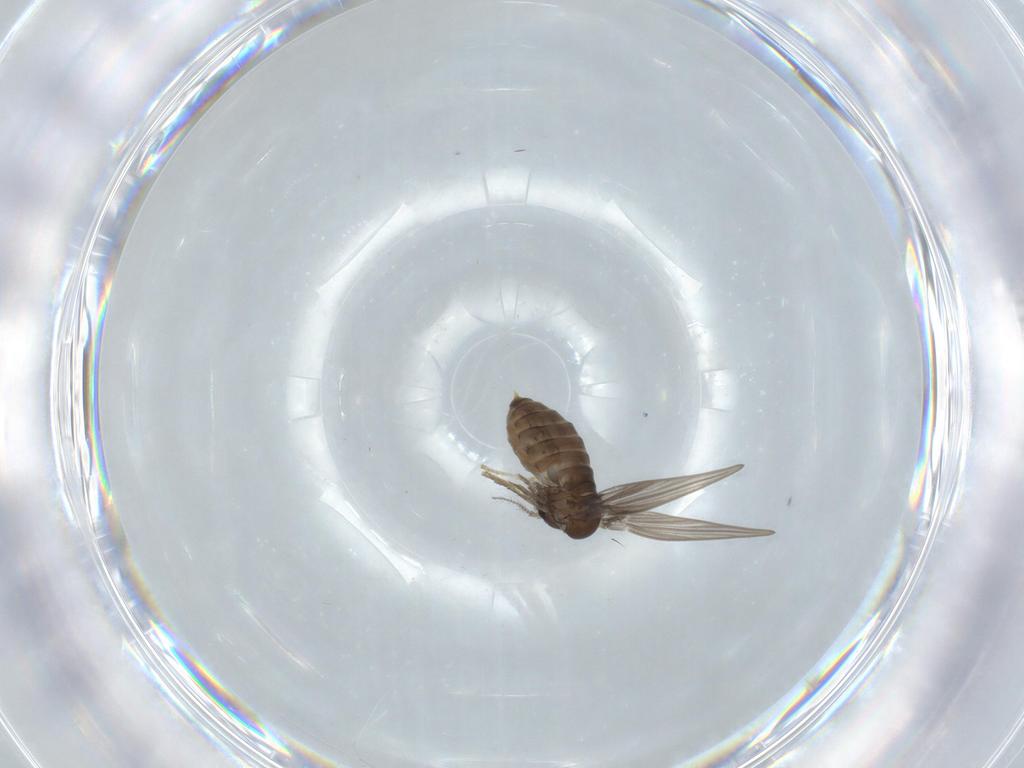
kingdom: Animalia
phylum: Arthropoda
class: Insecta
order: Diptera
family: Psychodidae
